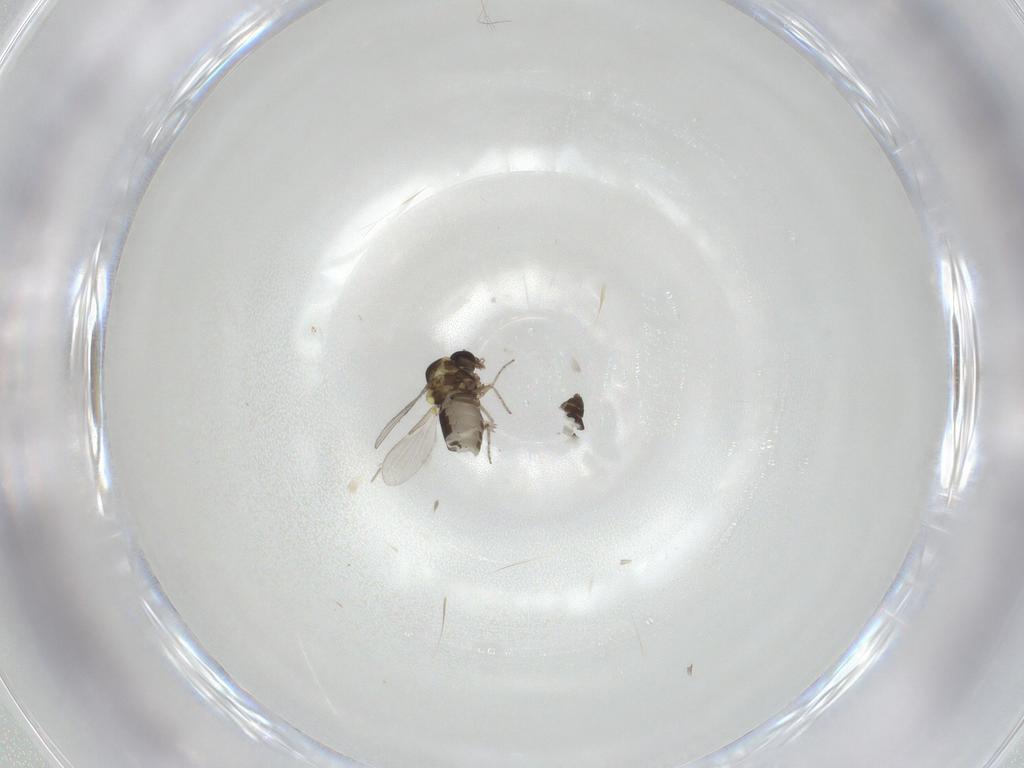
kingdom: Animalia
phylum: Arthropoda
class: Insecta
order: Diptera
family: Ceratopogonidae
